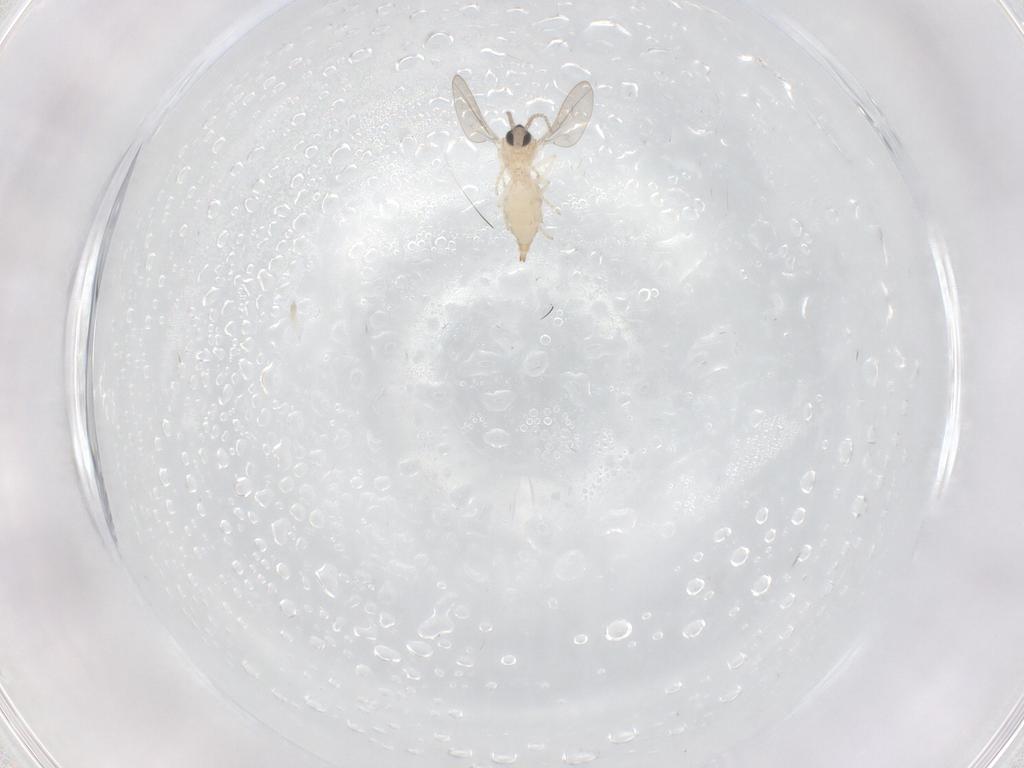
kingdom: Animalia
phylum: Arthropoda
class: Insecta
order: Diptera
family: Cecidomyiidae
